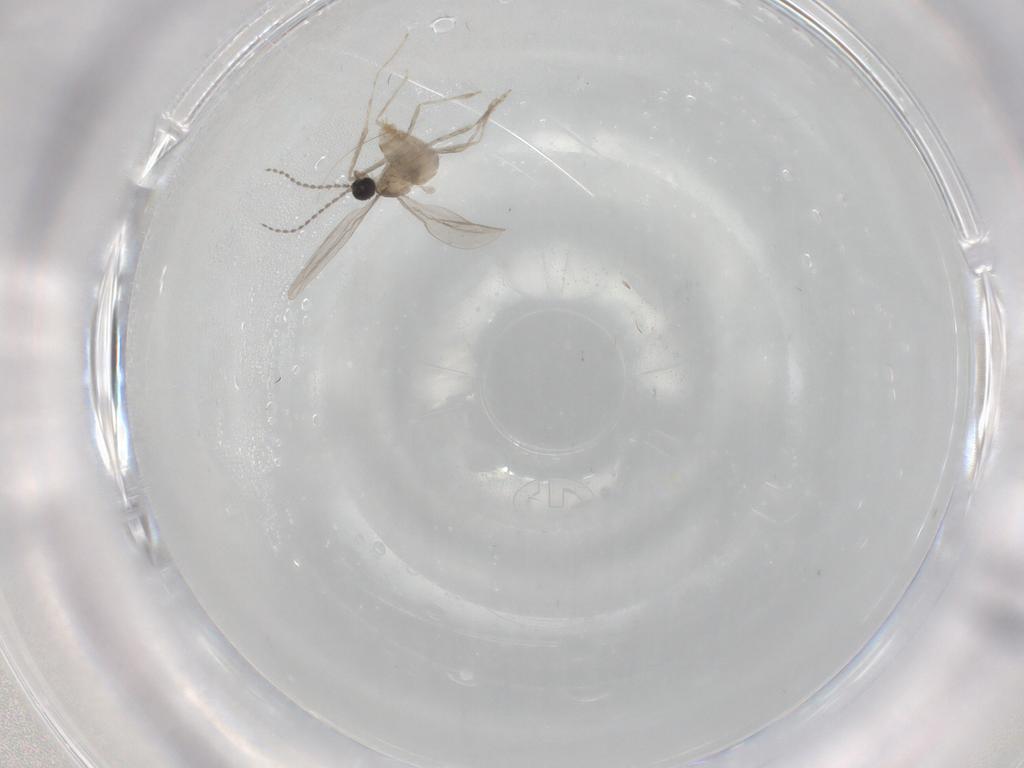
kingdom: Animalia
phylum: Arthropoda
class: Insecta
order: Diptera
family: Cecidomyiidae
